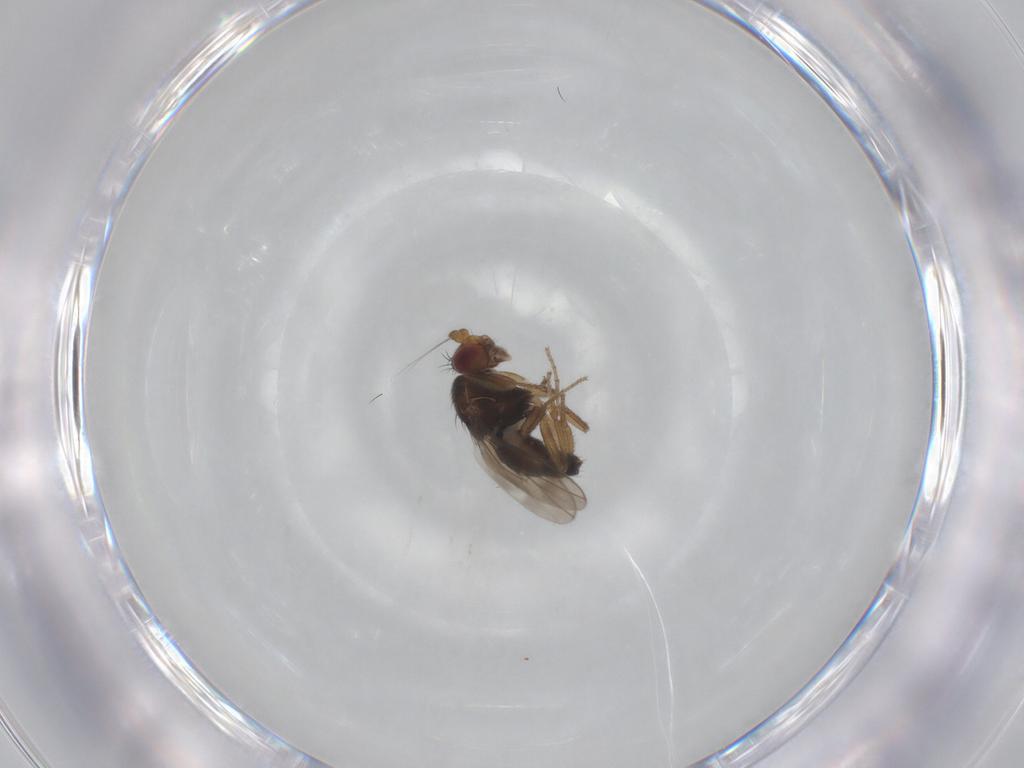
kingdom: Animalia
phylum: Arthropoda
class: Insecta
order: Diptera
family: Sphaeroceridae
